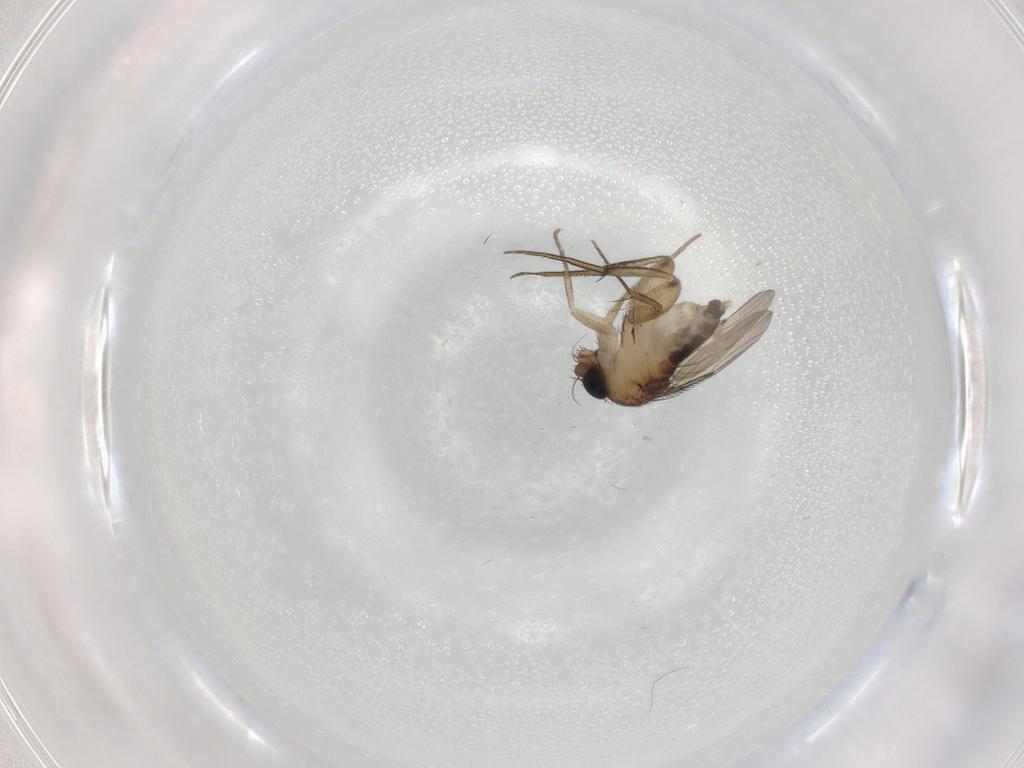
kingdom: Animalia
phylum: Arthropoda
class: Insecta
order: Diptera
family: Phoridae
